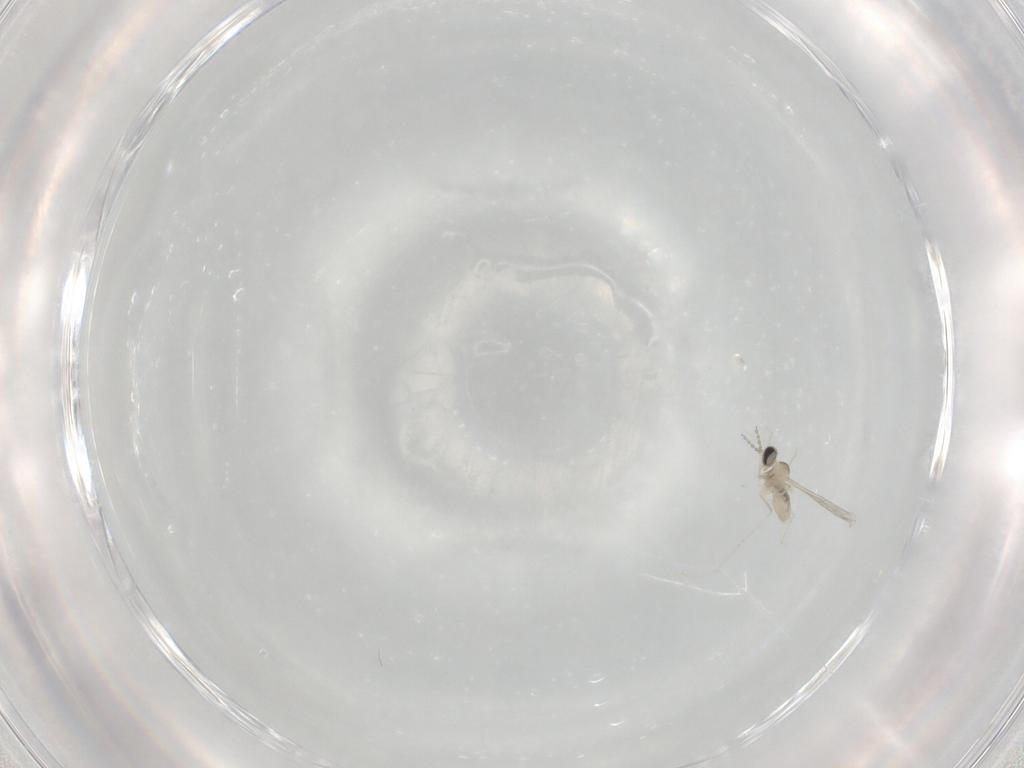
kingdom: Animalia
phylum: Arthropoda
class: Insecta
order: Diptera
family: Cecidomyiidae
